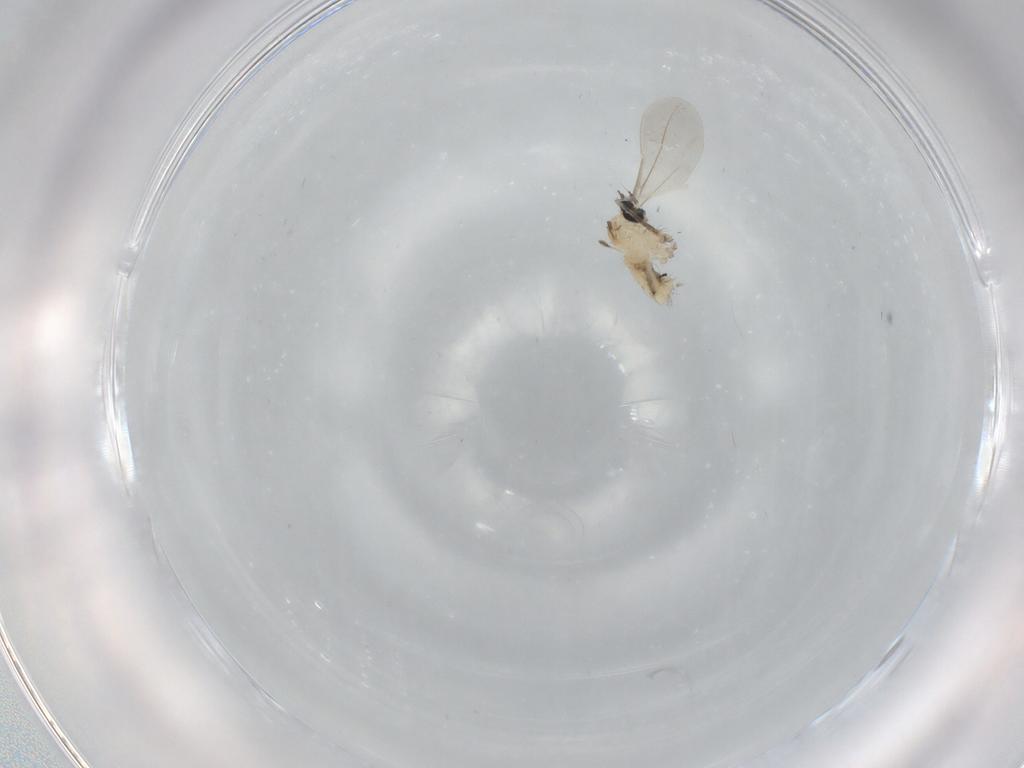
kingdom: Animalia
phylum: Arthropoda
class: Insecta
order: Diptera
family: Cecidomyiidae
